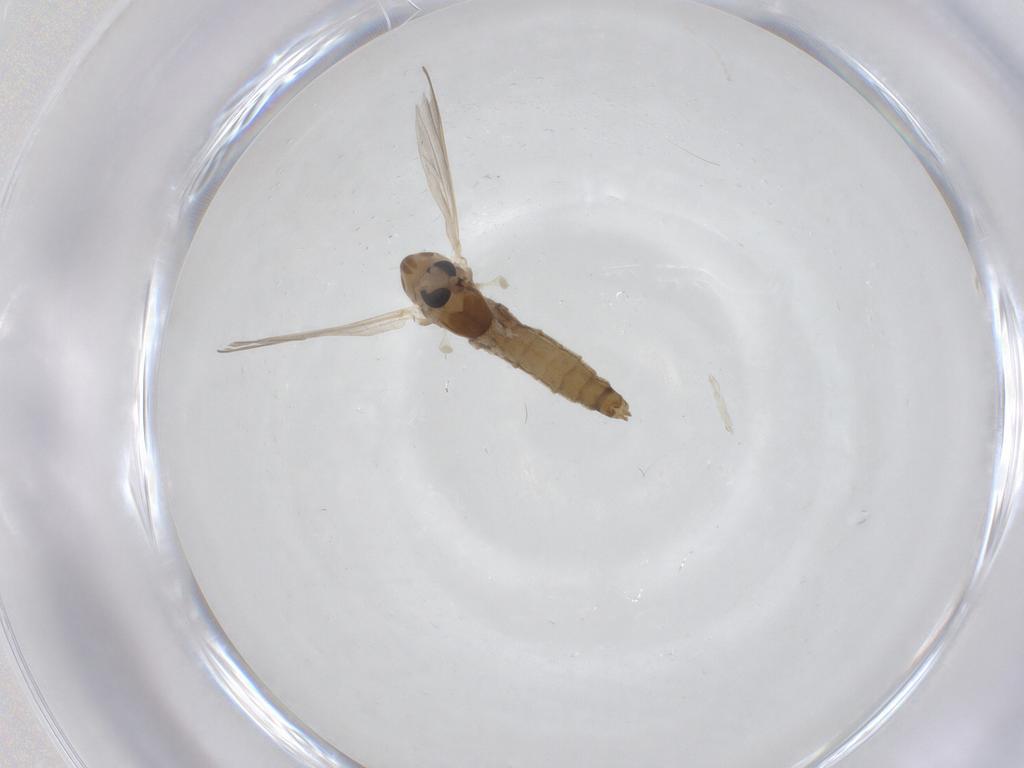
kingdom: Animalia
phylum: Arthropoda
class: Insecta
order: Diptera
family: Chironomidae
